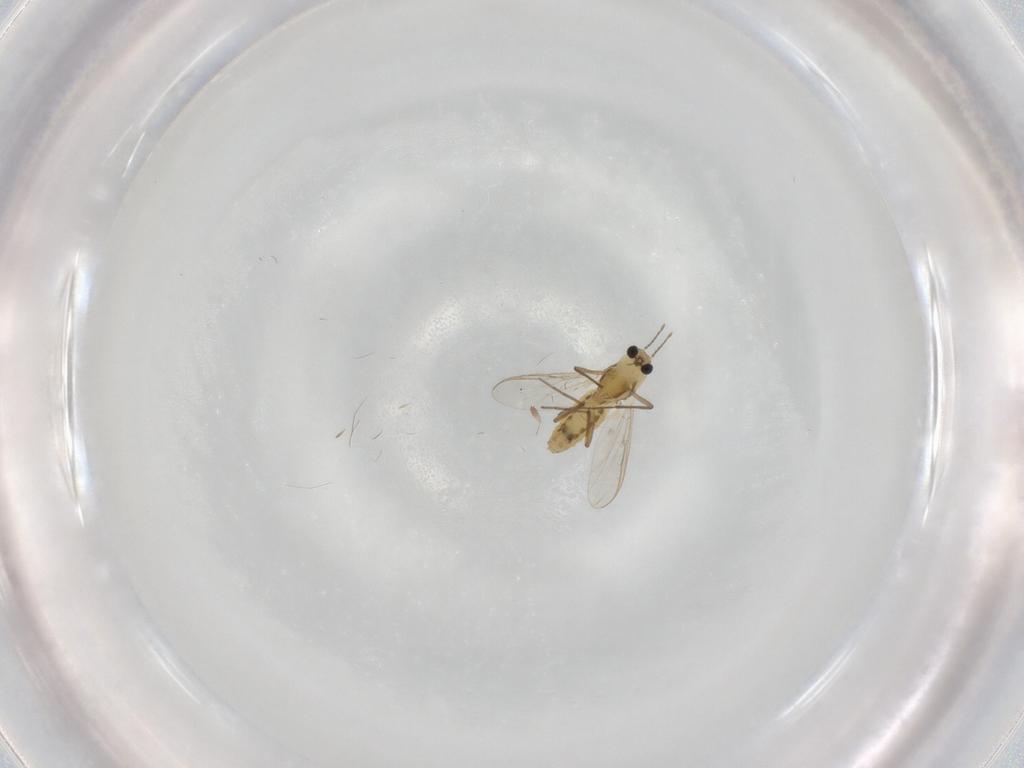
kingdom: Animalia
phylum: Arthropoda
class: Insecta
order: Diptera
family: Chironomidae
